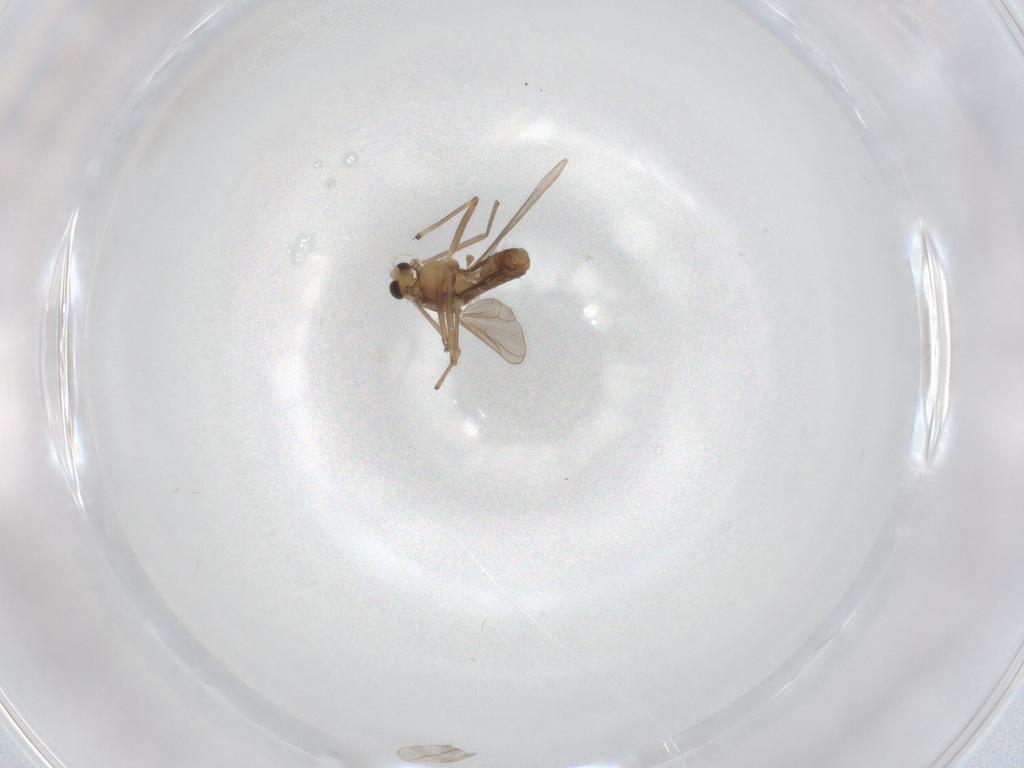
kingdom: Animalia
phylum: Arthropoda
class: Insecta
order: Diptera
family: Chironomidae
